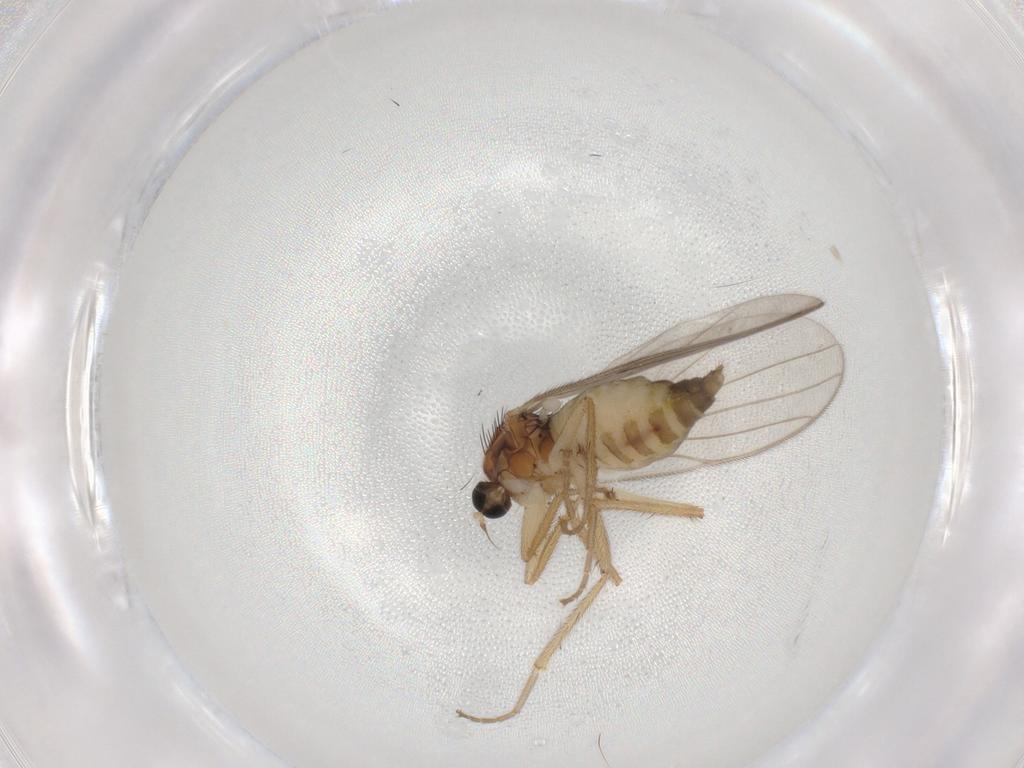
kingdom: Animalia
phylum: Arthropoda
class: Insecta
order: Diptera
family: Hybotidae
